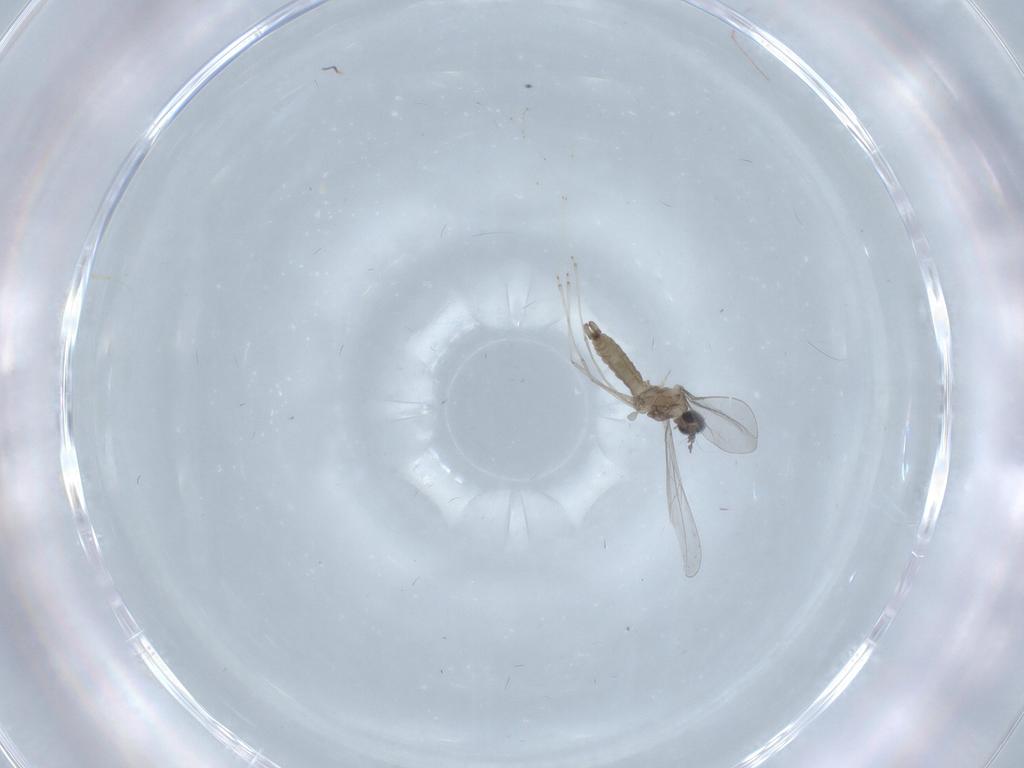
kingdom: Animalia
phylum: Arthropoda
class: Insecta
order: Diptera
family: Cecidomyiidae
